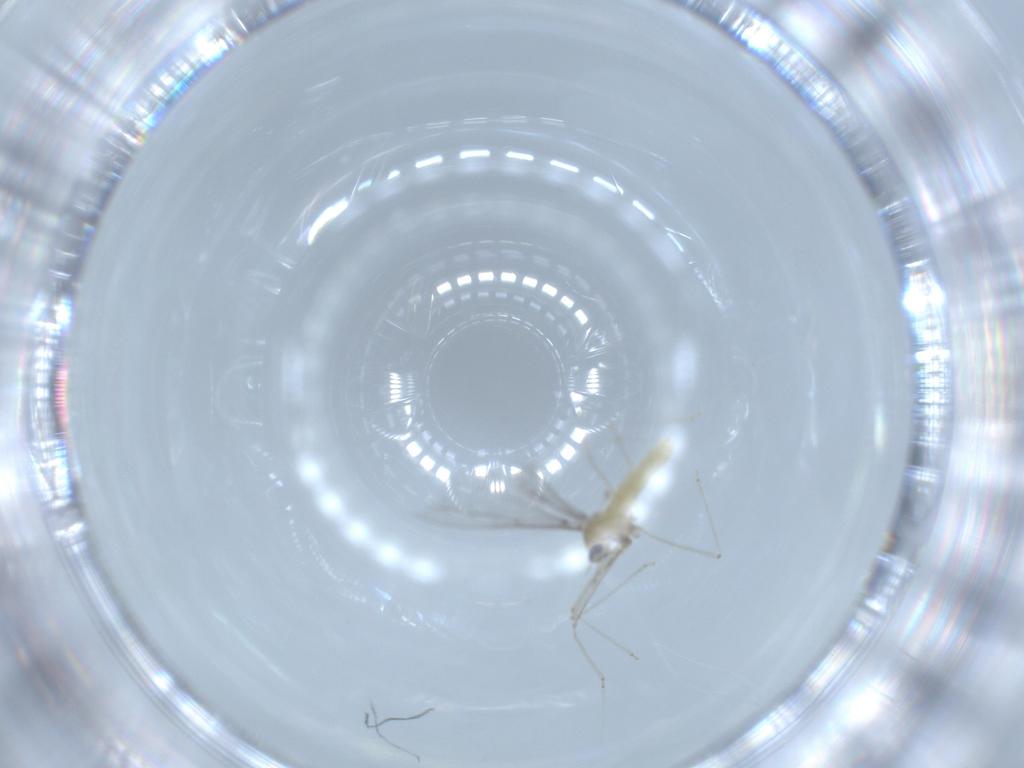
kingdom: Animalia
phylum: Arthropoda
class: Insecta
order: Diptera
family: Cecidomyiidae
